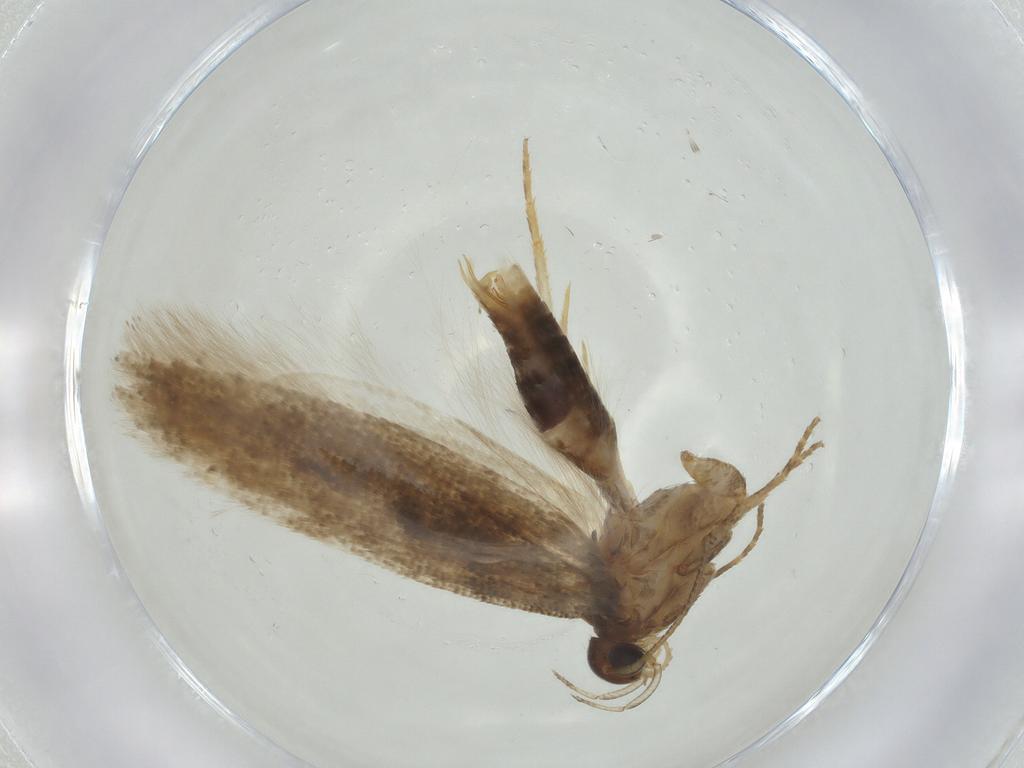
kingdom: Animalia
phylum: Arthropoda
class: Insecta
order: Lepidoptera
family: Gelechiidae
